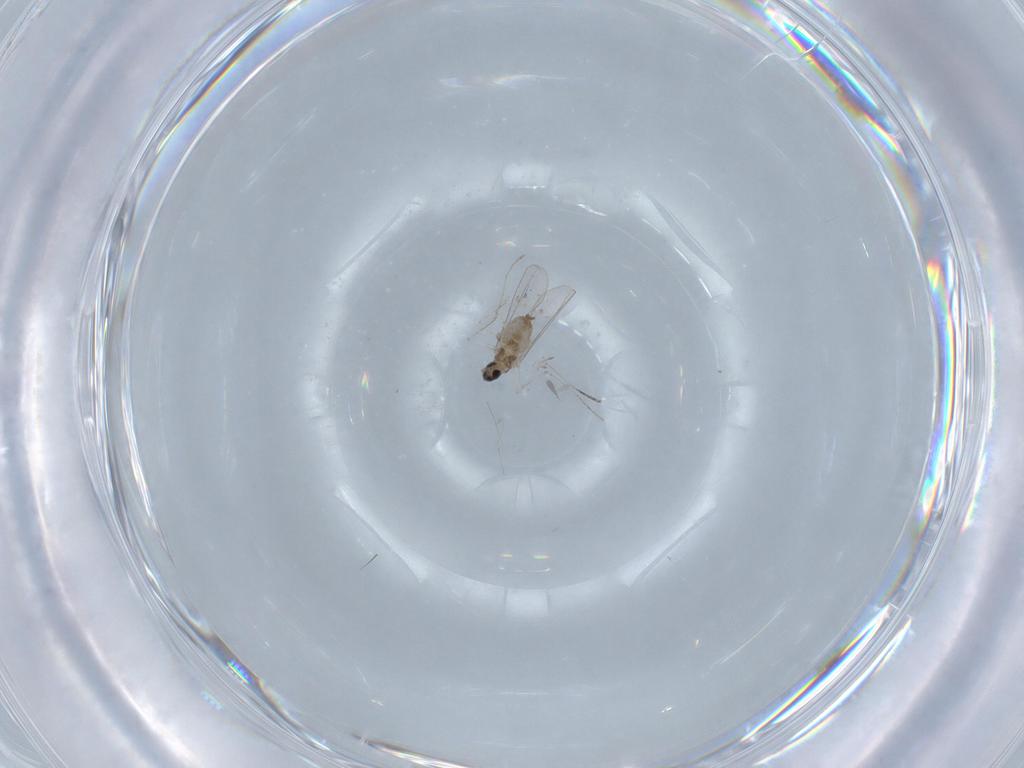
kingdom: Animalia
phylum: Arthropoda
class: Insecta
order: Diptera
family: Cecidomyiidae
